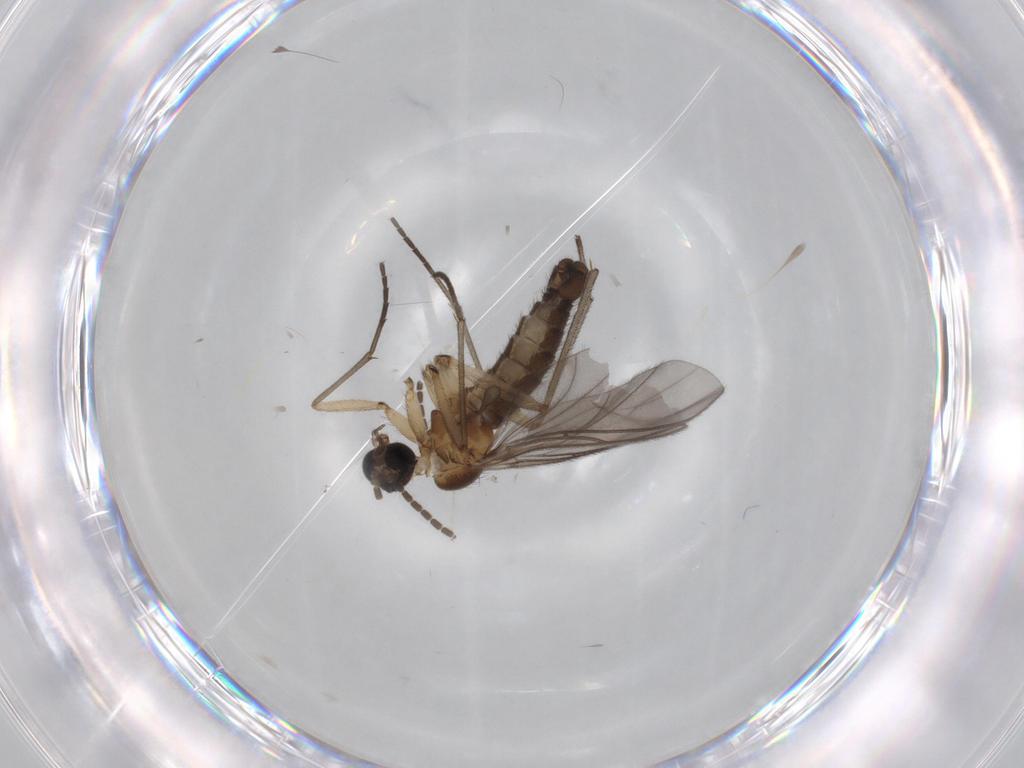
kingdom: Animalia
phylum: Arthropoda
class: Insecta
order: Diptera
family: Sciaridae
